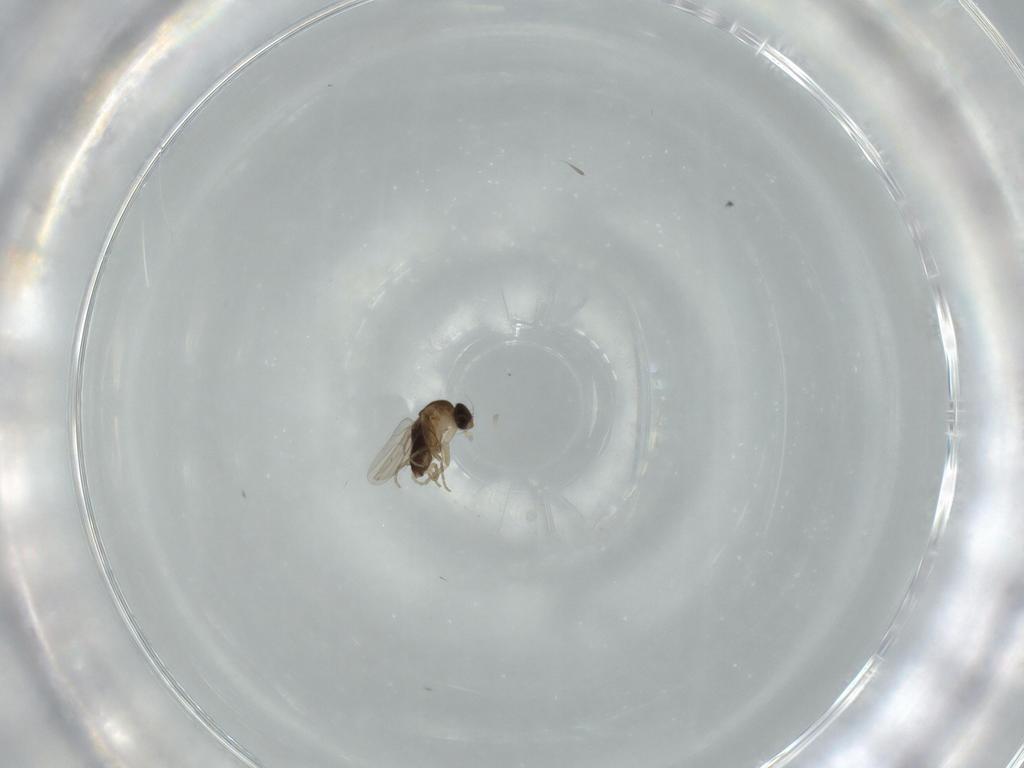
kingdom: Animalia
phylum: Arthropoda
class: Insecta
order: Diptera
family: Phoridae
